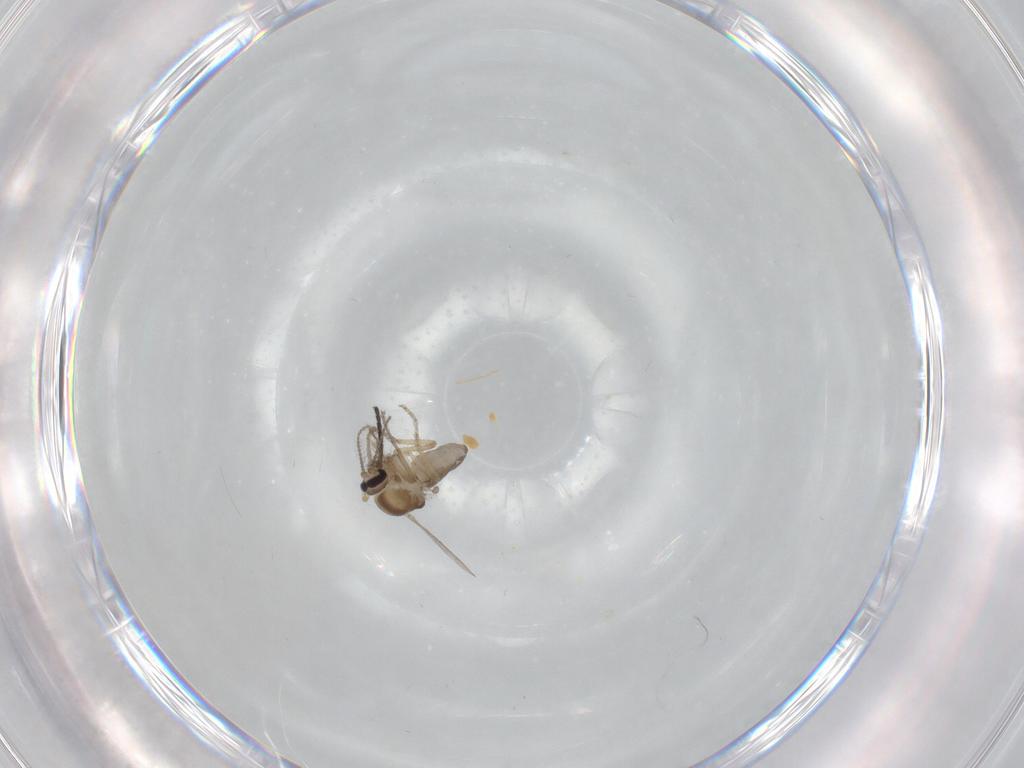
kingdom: Animalia
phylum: Arthropoda
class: Insecta
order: Diptera
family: Ceratopogonidae
